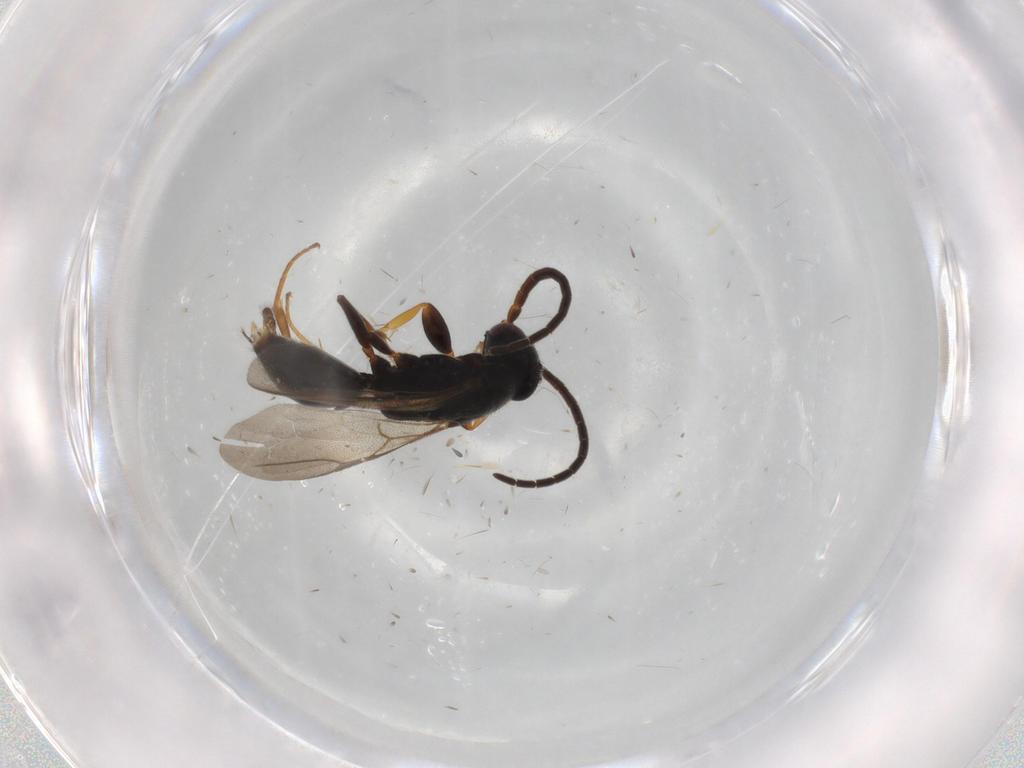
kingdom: Animalia
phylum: Arthropoda
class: Insecta
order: Hymenoptera
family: Bethylidae
